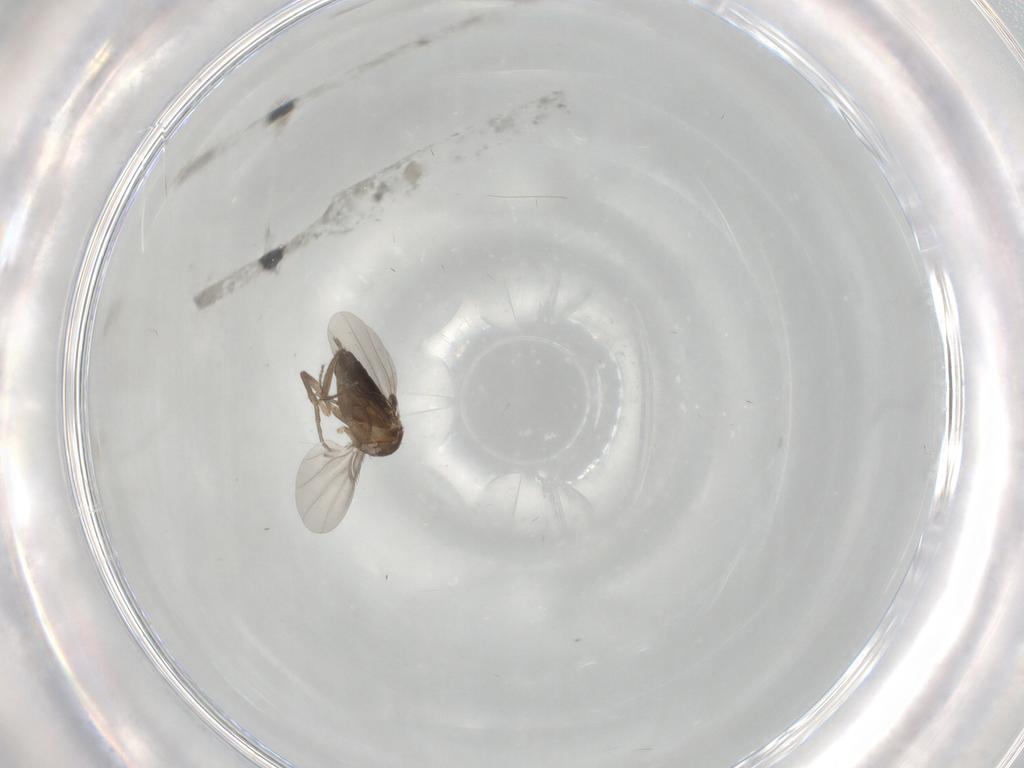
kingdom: Animalia
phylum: Arthropoda
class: Insecta
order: Diptera
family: Phoridae
